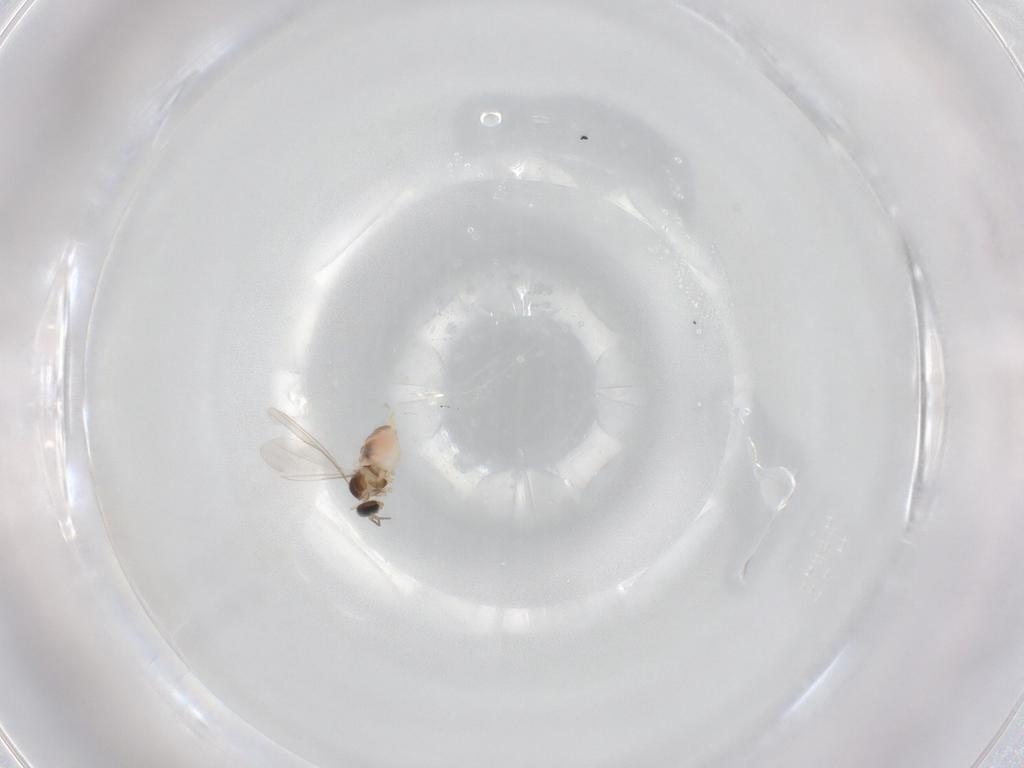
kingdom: Animalia
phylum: Arthropoda
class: Insecta
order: Diptera
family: Cecidomyiidae
